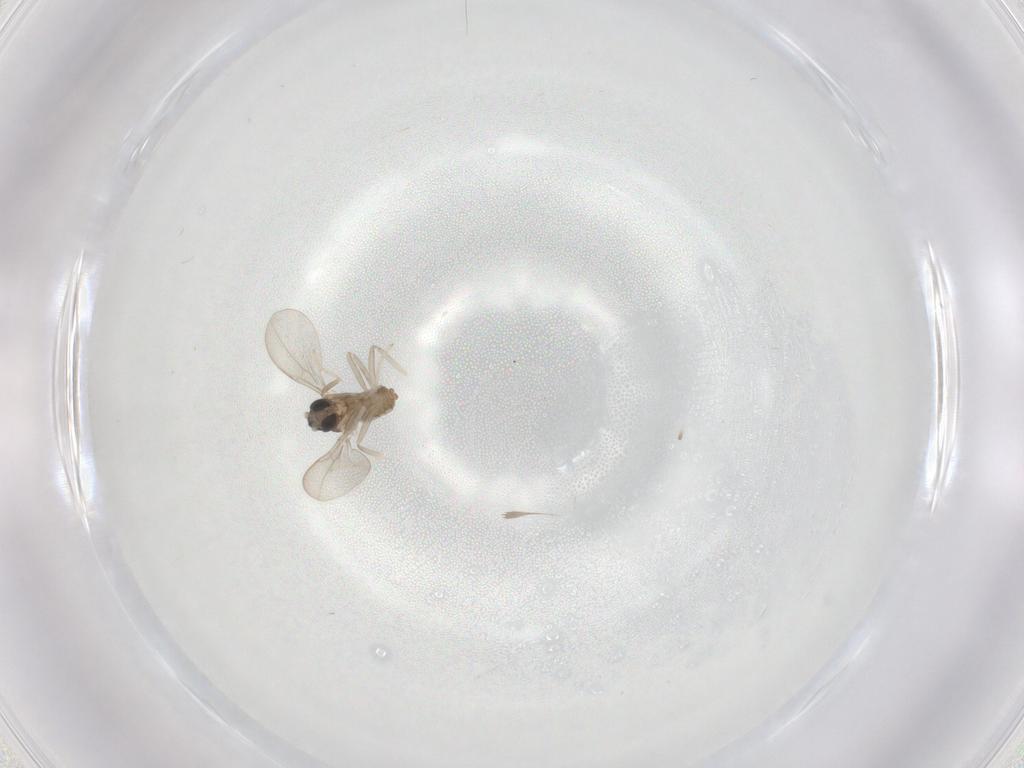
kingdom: Animalia
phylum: Arthropoda
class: Insecta
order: Diptera
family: Cecidomyiidae
